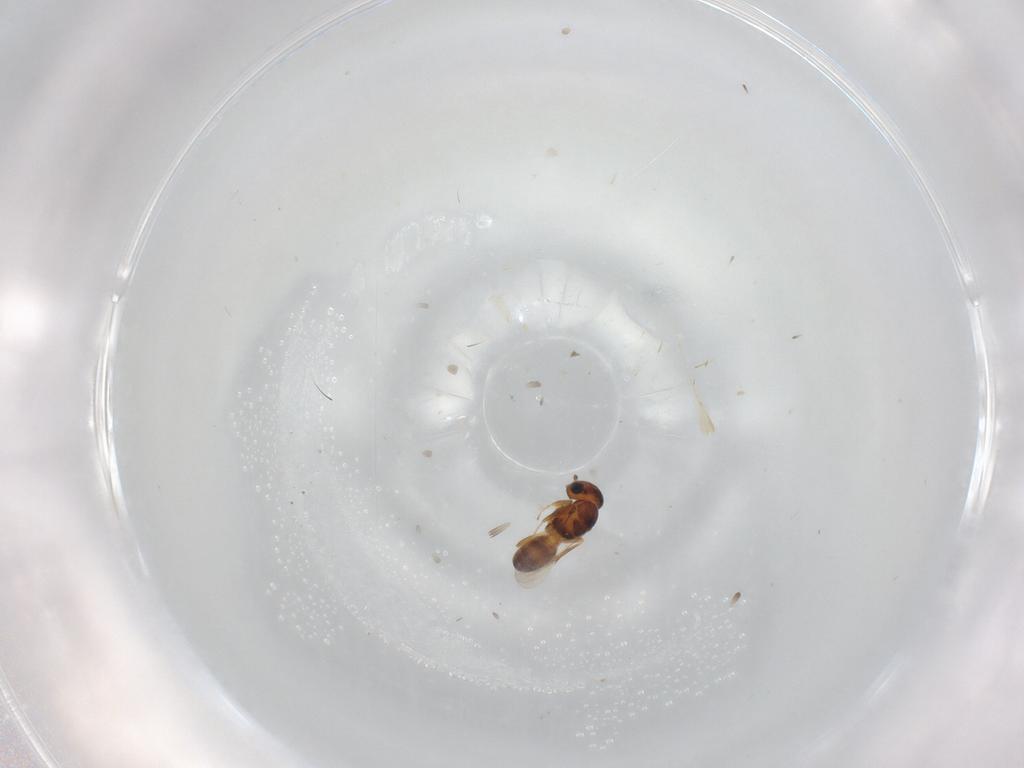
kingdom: Animalia
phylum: Arthropoda
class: Insecta
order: Hymenoptera
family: Scelionidae
